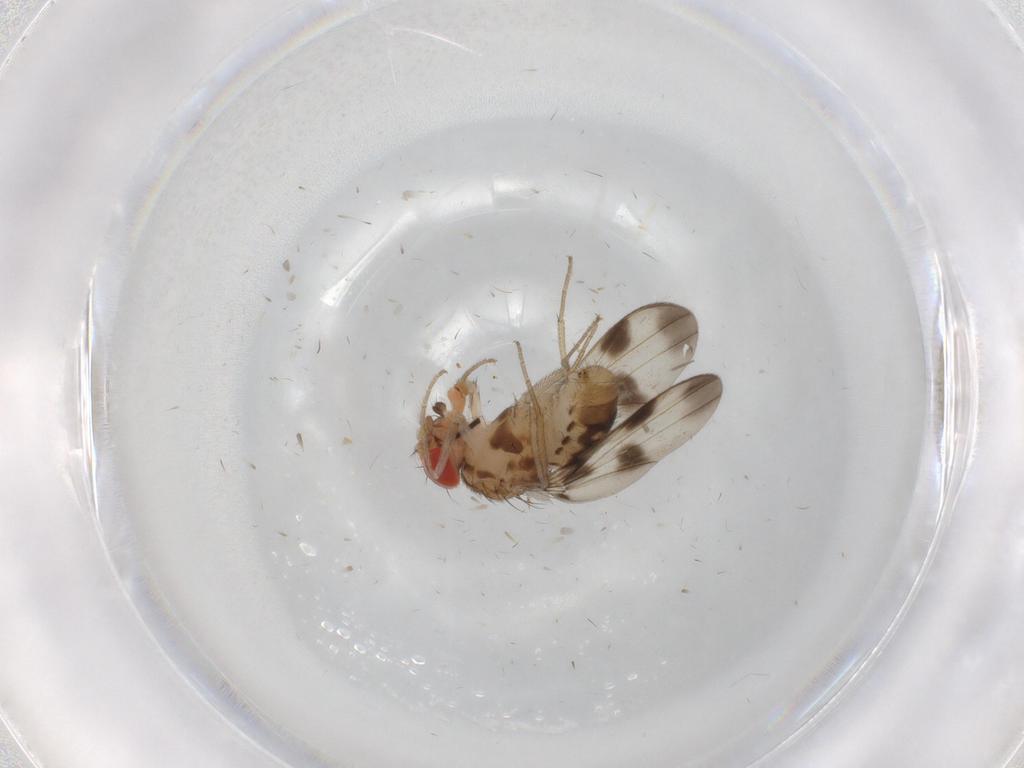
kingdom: Animalia
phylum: Arthropoda
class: Insecta
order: Diptera
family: Drosophilidae
